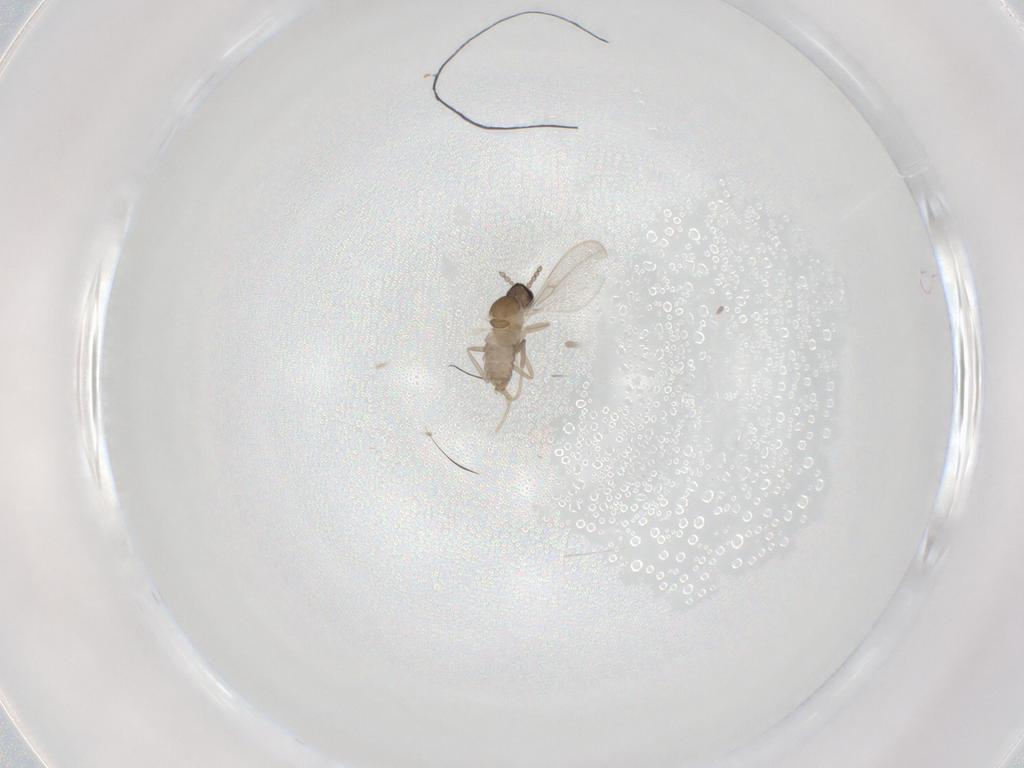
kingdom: Animalia
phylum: Arthropoda
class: Insecta
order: Diptera
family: Cecidomyiidae
